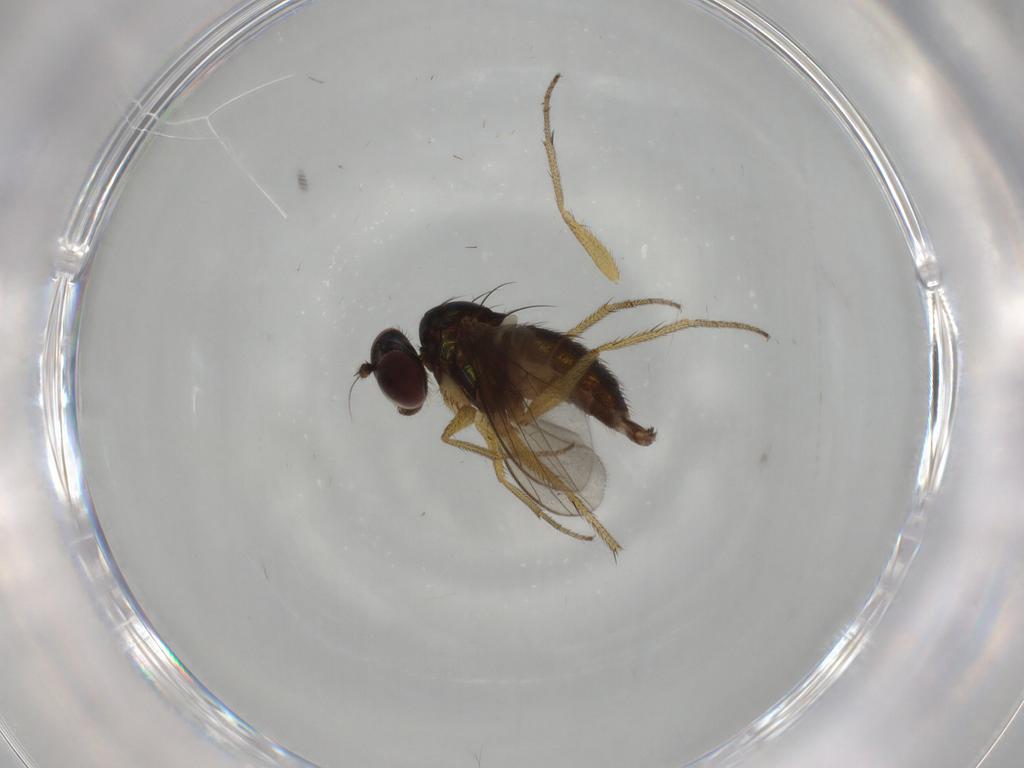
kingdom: Animalia
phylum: Arthropoda
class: Insecta
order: Diptera
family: Dolichopodidae
